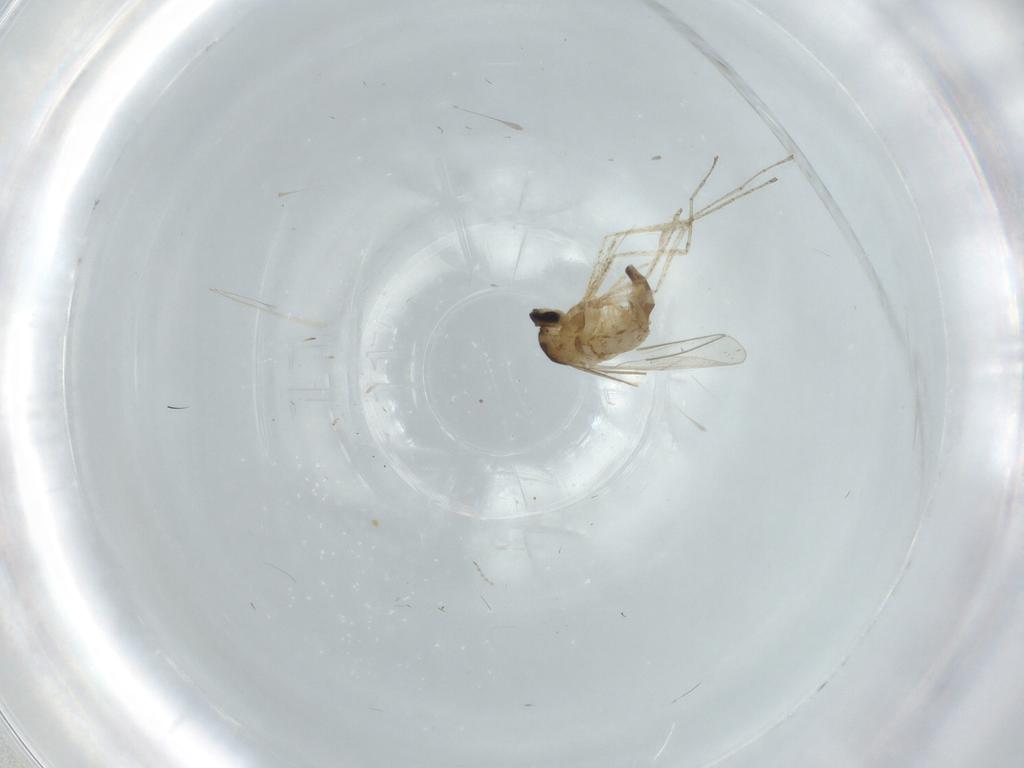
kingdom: Animalia
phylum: Arthropoda
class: Insecta
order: Diptera
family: Cecidomyiidae
